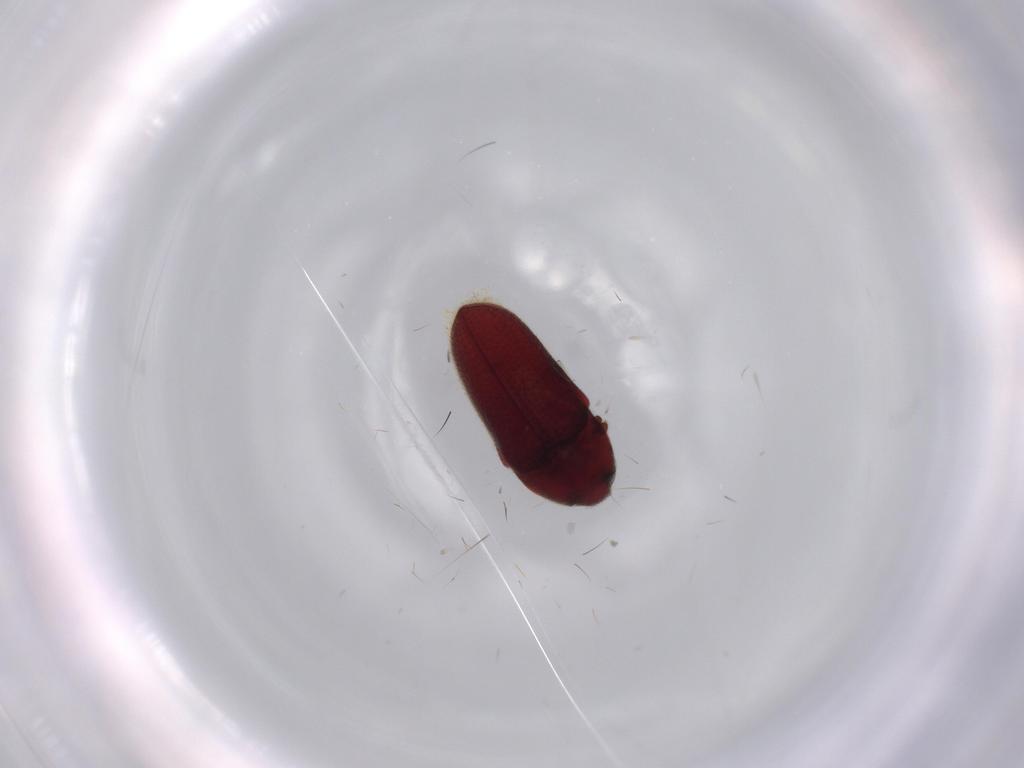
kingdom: Animalia
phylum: Arthropoda
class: Insecta
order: Coleoptera
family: Throscidae
